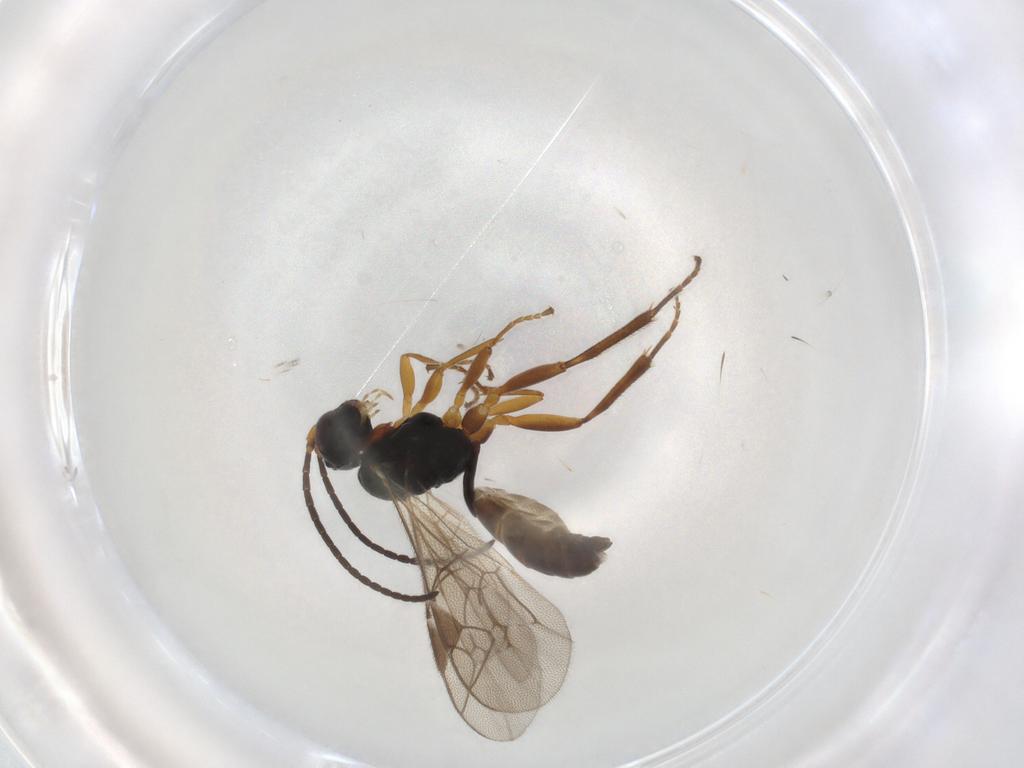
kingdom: Animalia
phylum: Arthropoda
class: Insecta
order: Hymenoptera
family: Ichneumonidae
